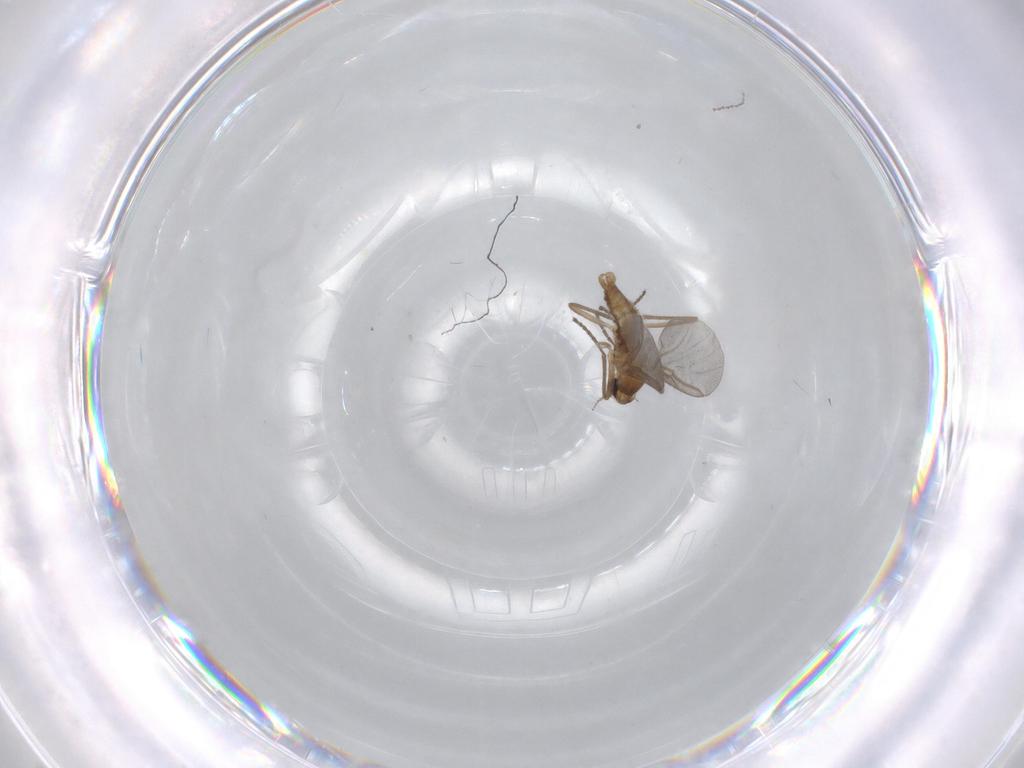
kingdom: Animalia
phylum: Arthropoda
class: Insecta
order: Diptera
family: Cecidomyiidae
